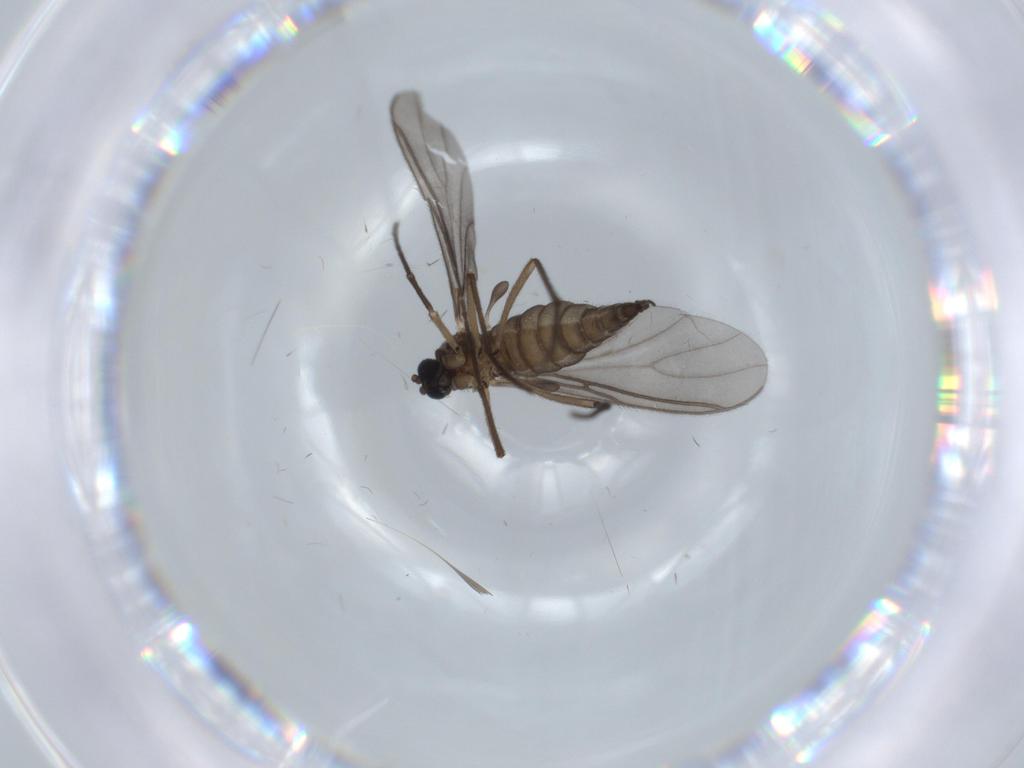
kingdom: Animalia
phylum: Arthropoda
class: Insecta
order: Diptera
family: Sciaridae
